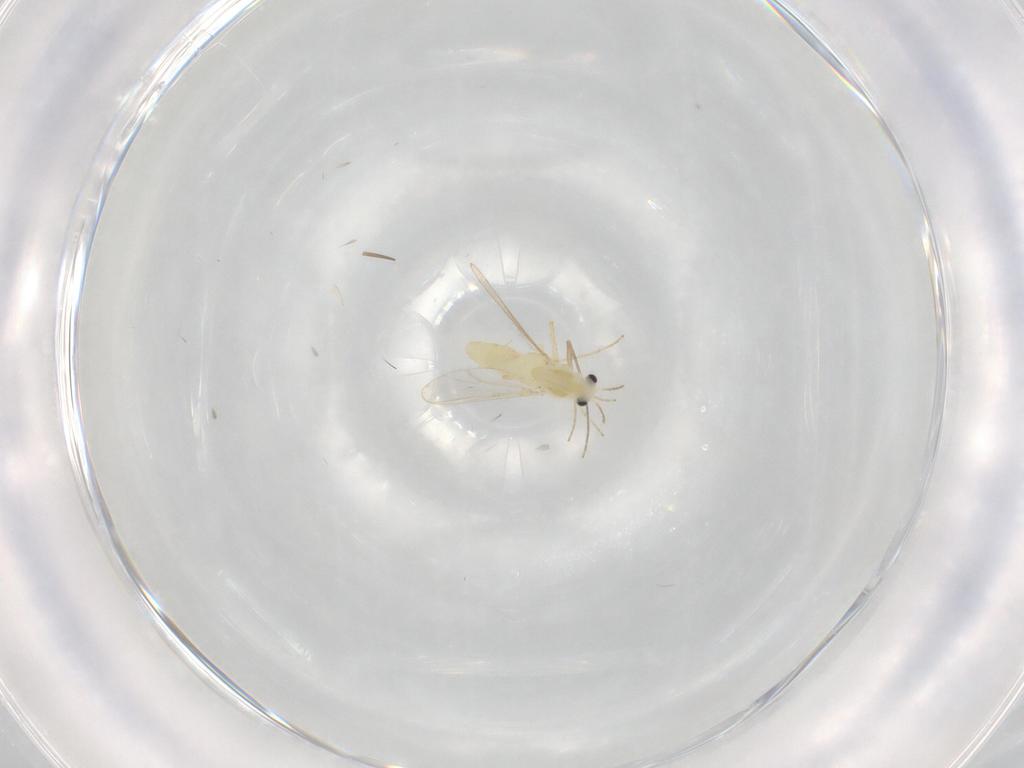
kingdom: Animalia
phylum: Arthropoda
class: Insecta
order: Diptera
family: Chironomidae
